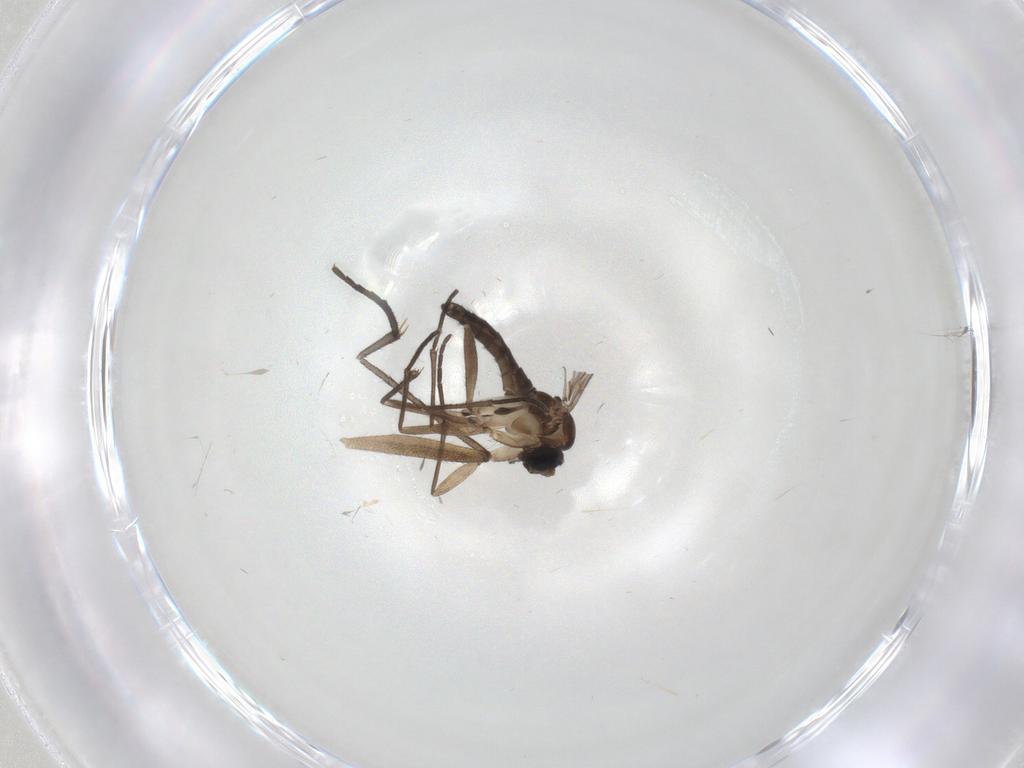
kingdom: Animalia
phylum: Arthropoda
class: Insecta
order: Diptera
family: Sciaridae
